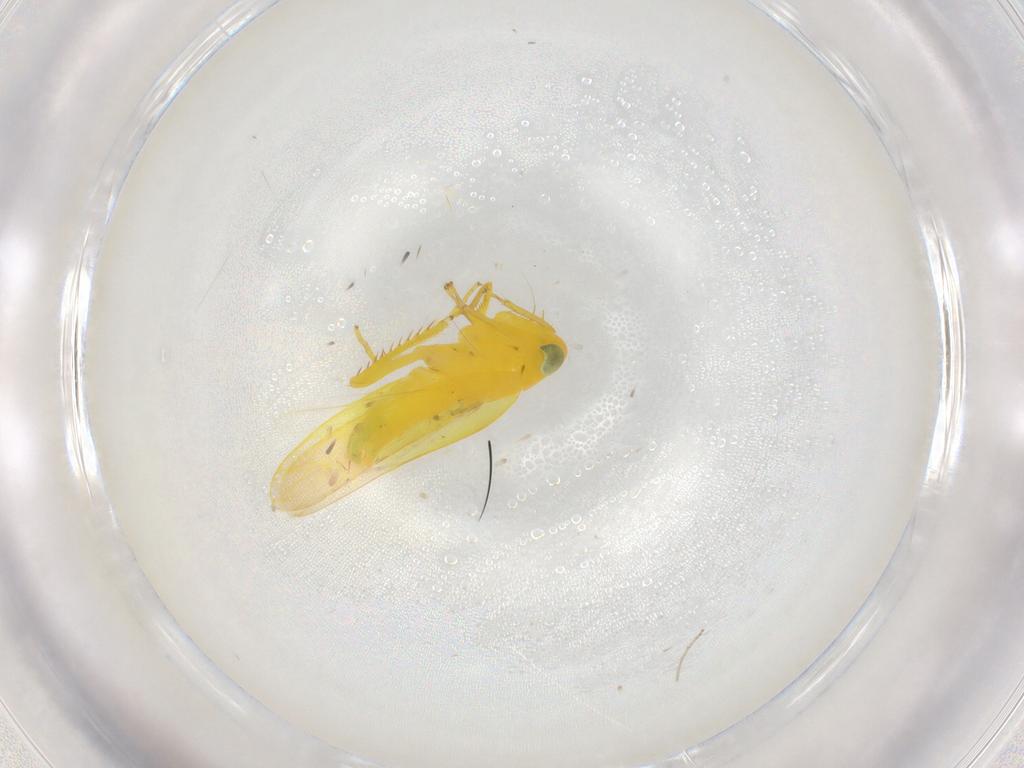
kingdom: Animalia
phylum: Arthropoda
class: Insecta
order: Hemiptera
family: Cicadellidae
